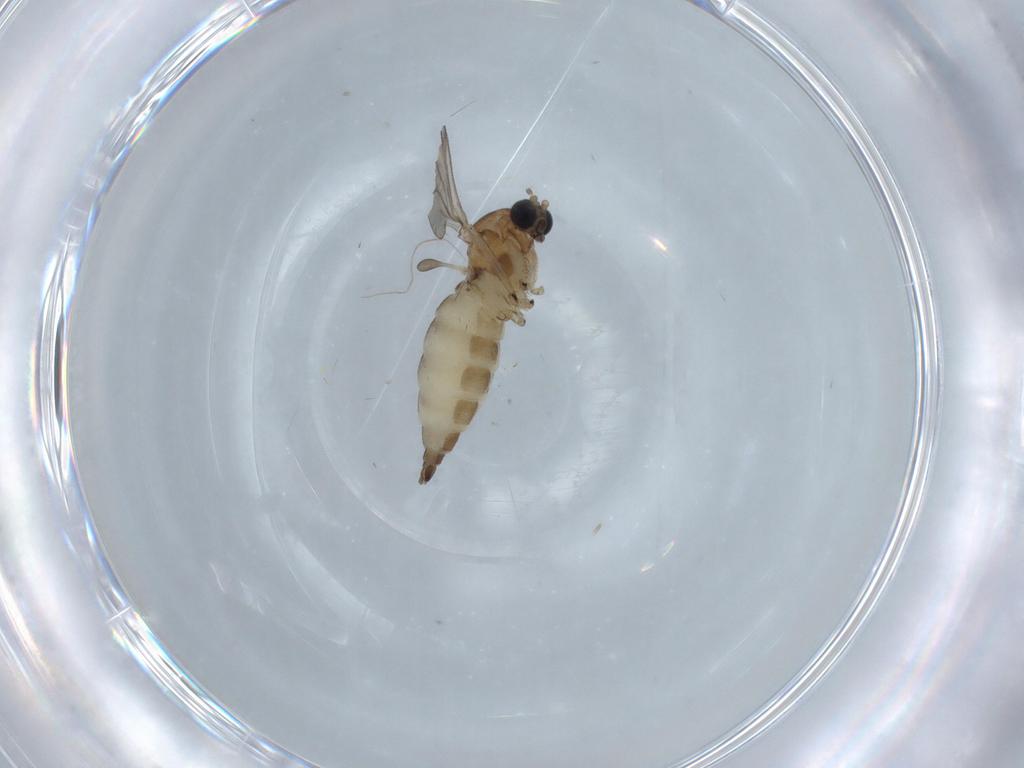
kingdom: Animalia
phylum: Arthropoda
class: Insecta
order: Diptera
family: Sciaridae
